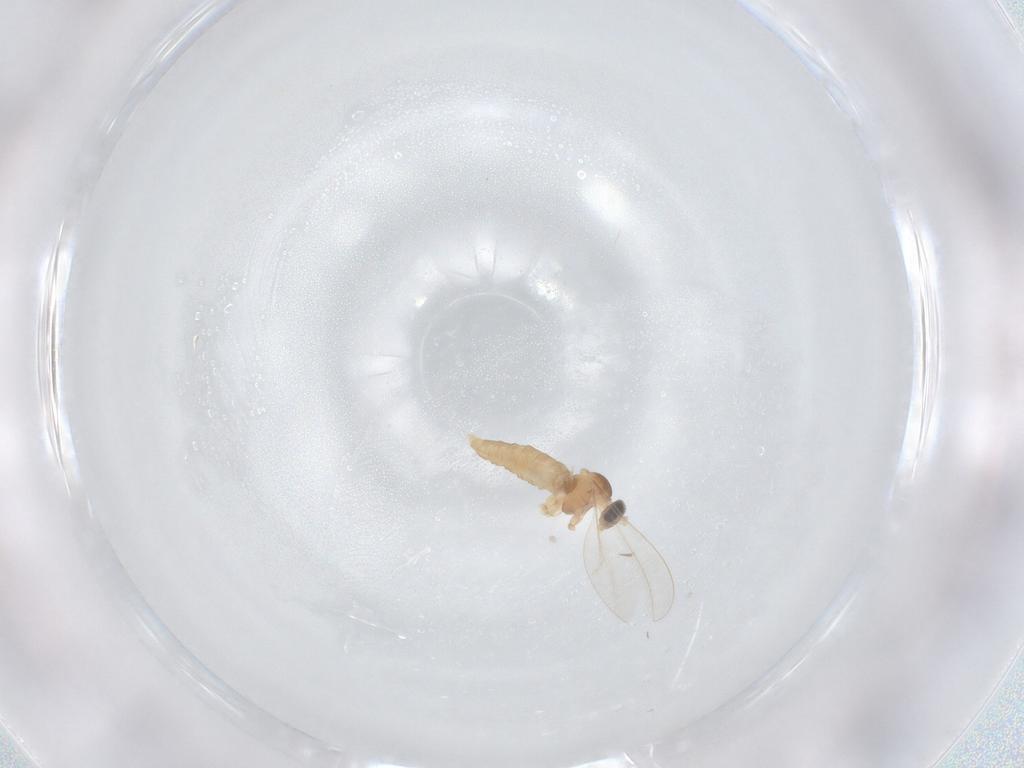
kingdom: Animalia
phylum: Arthropoda
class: Insecta
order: Diptera
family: Cecidomyiidae
